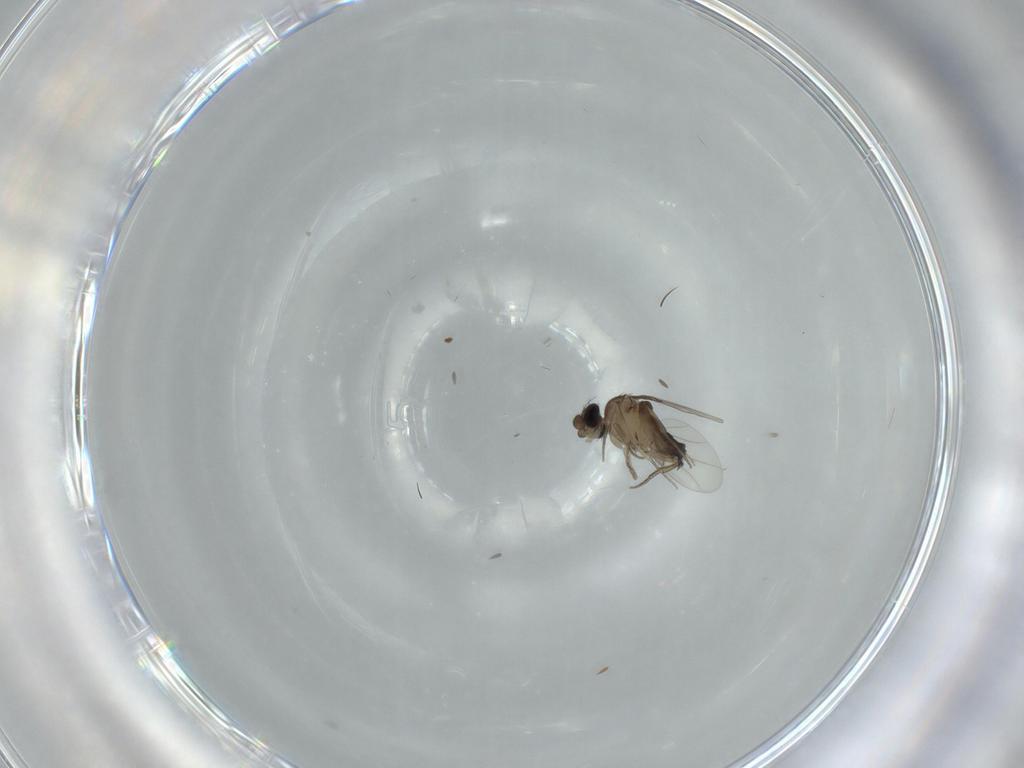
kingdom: Animalia
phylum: Arthropoda
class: Insecta
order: Diptera
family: Phoridae
